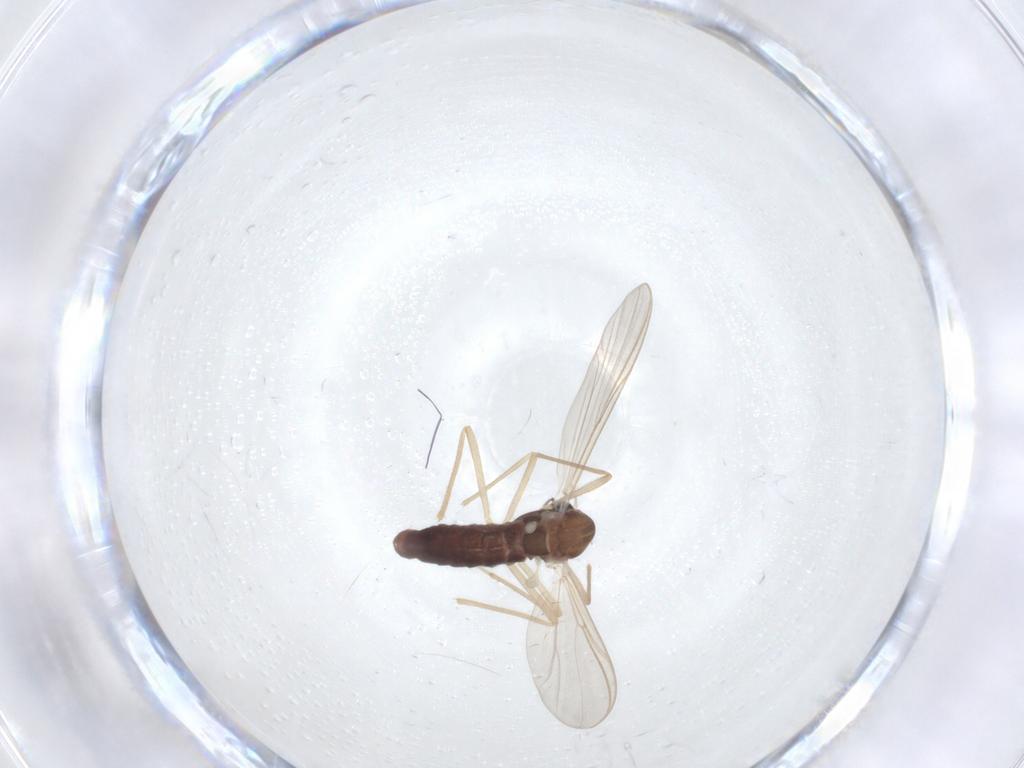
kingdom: Animalia
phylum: Arthropoda
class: Insecta
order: Diptera
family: Chironomidae
